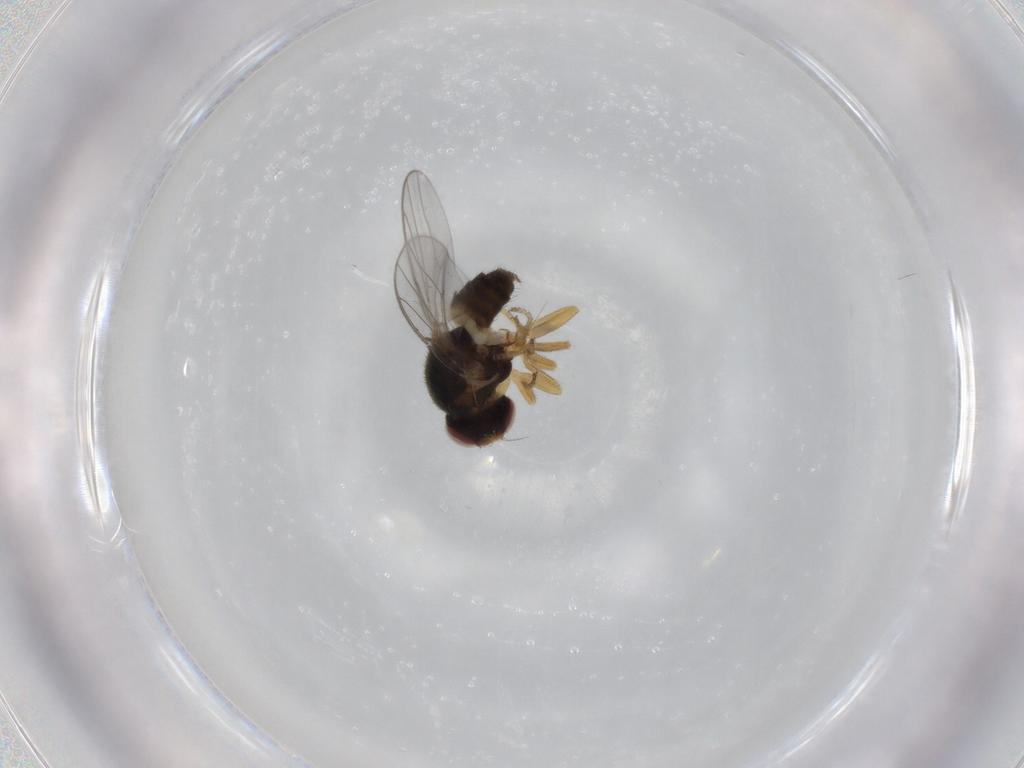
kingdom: Animalia
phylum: Arthropoda
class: Insecta
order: Diptera
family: Chloropidae
